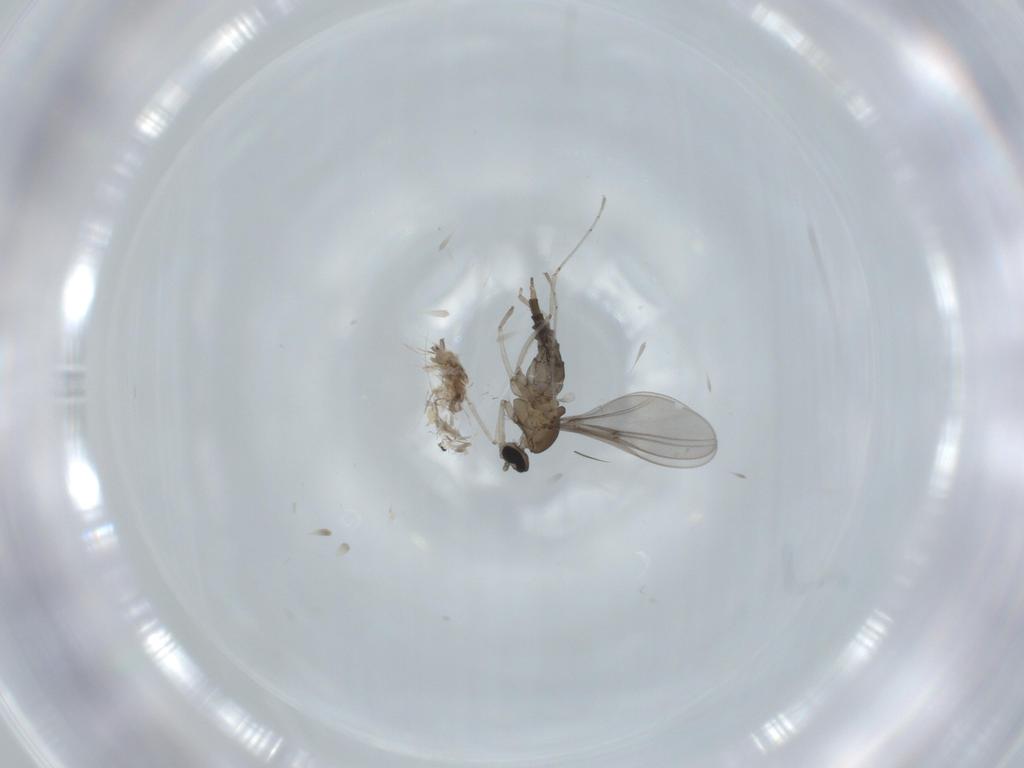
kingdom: Animalia
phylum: Arthropoda
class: Insecta
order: Diptera
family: Cecidomyiidae
